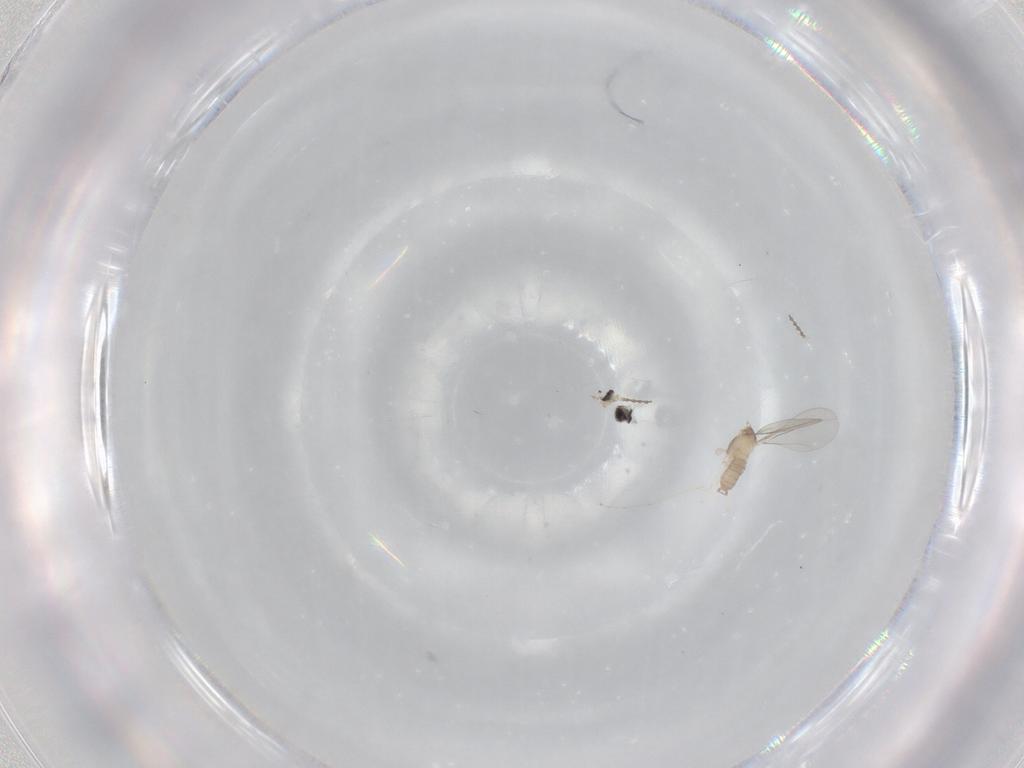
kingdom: Animalia
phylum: Arthropoda
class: Insecta
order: Diptera
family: Cecidomyiidae
